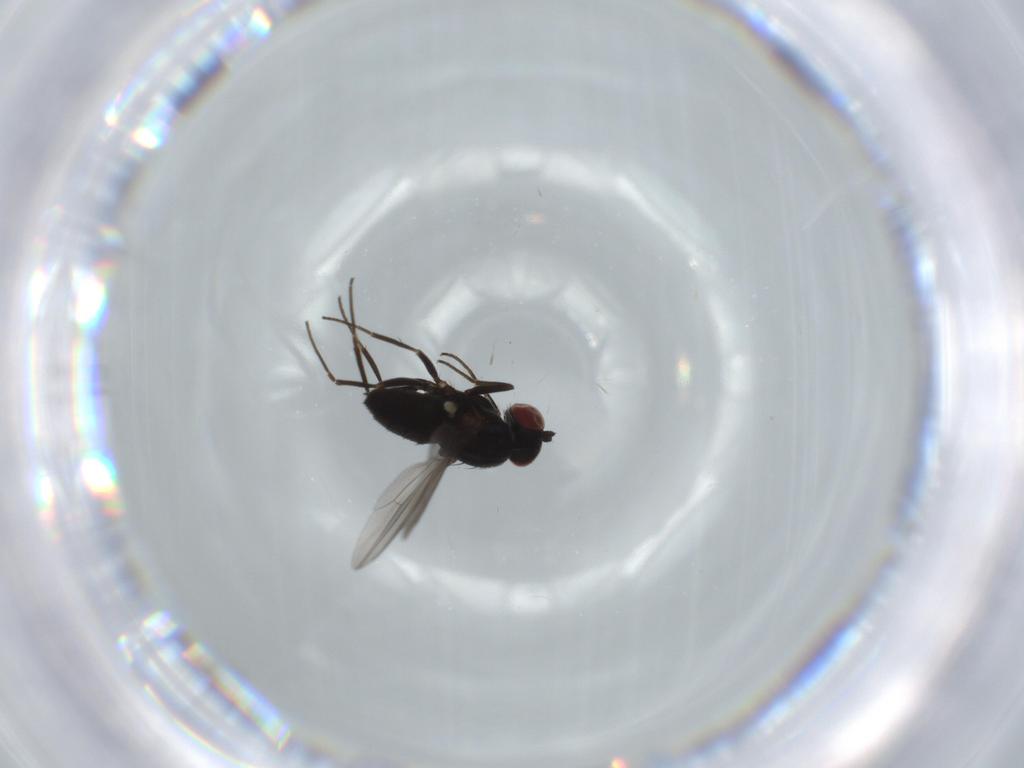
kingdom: Animalia
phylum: Arthropoda
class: Insecta
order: Diptera
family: Dolichopodidae
